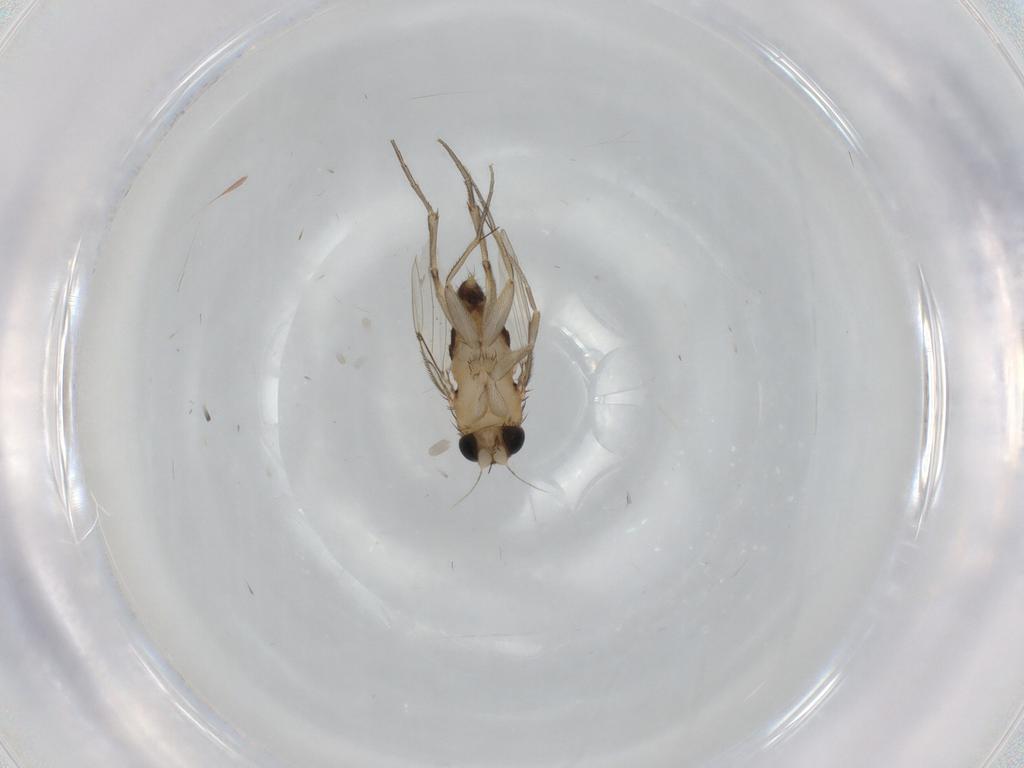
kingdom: Animalia
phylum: Arthropoda
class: Insecta
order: Diptera
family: Phoridae
